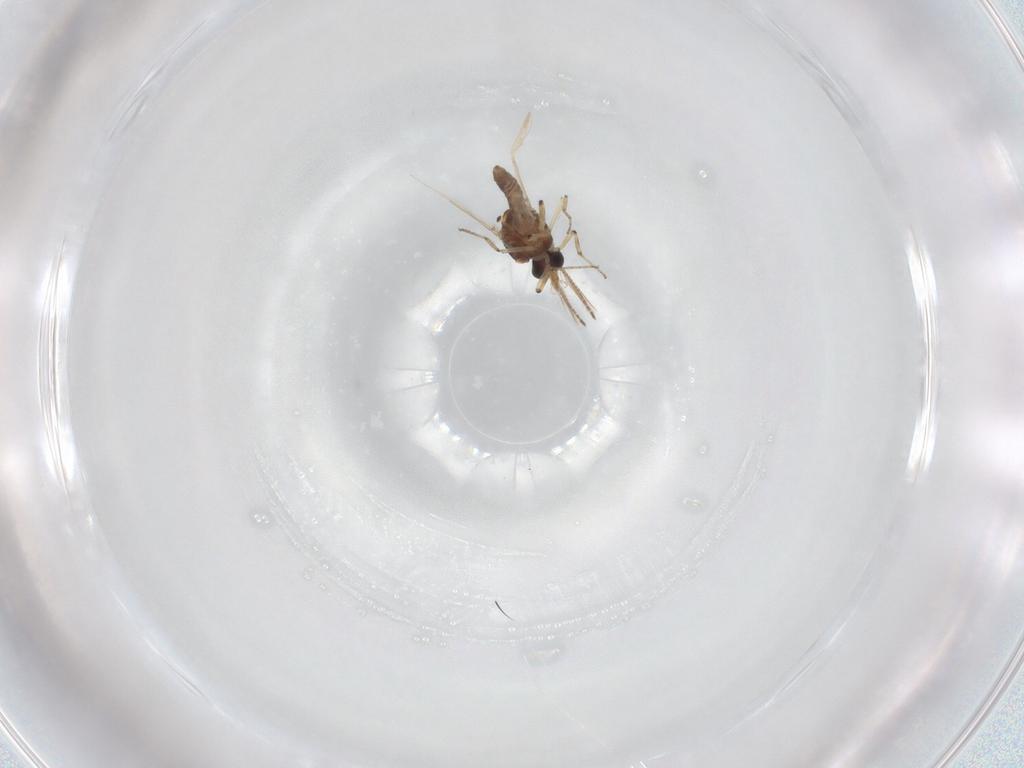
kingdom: Animalia
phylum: Arthropoda
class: Insecta
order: Diptera
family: Ceratopogonidae
